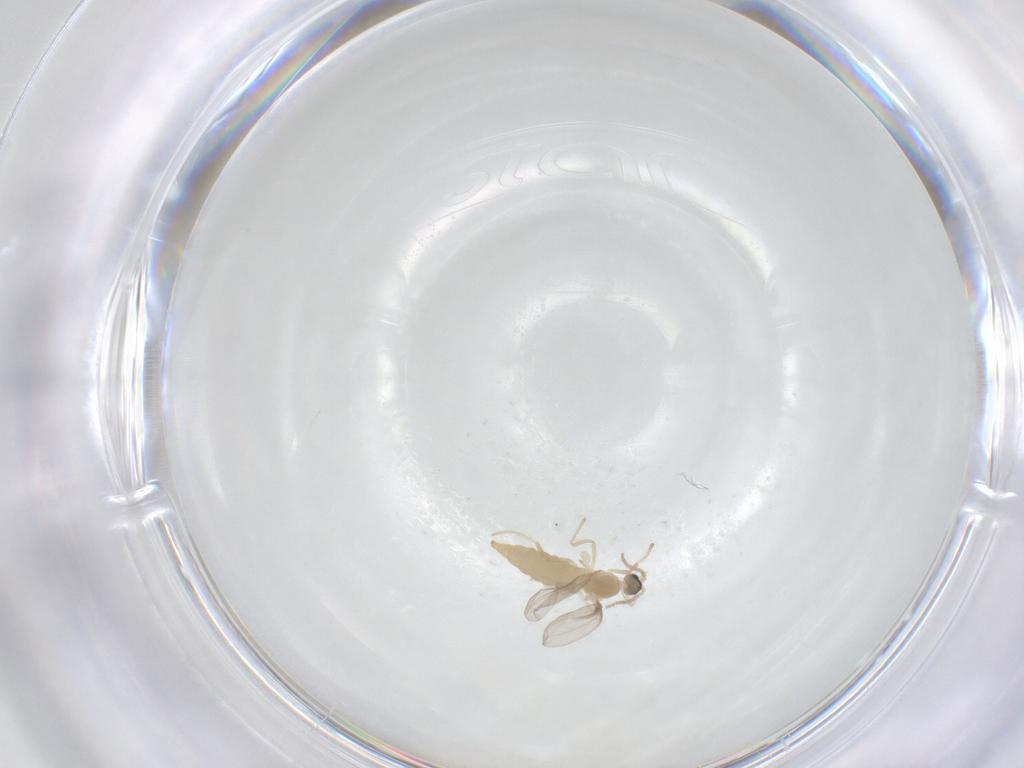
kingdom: Animalia
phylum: Arthropoda
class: Insecta
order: Diptera
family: Cecidomyiidae
